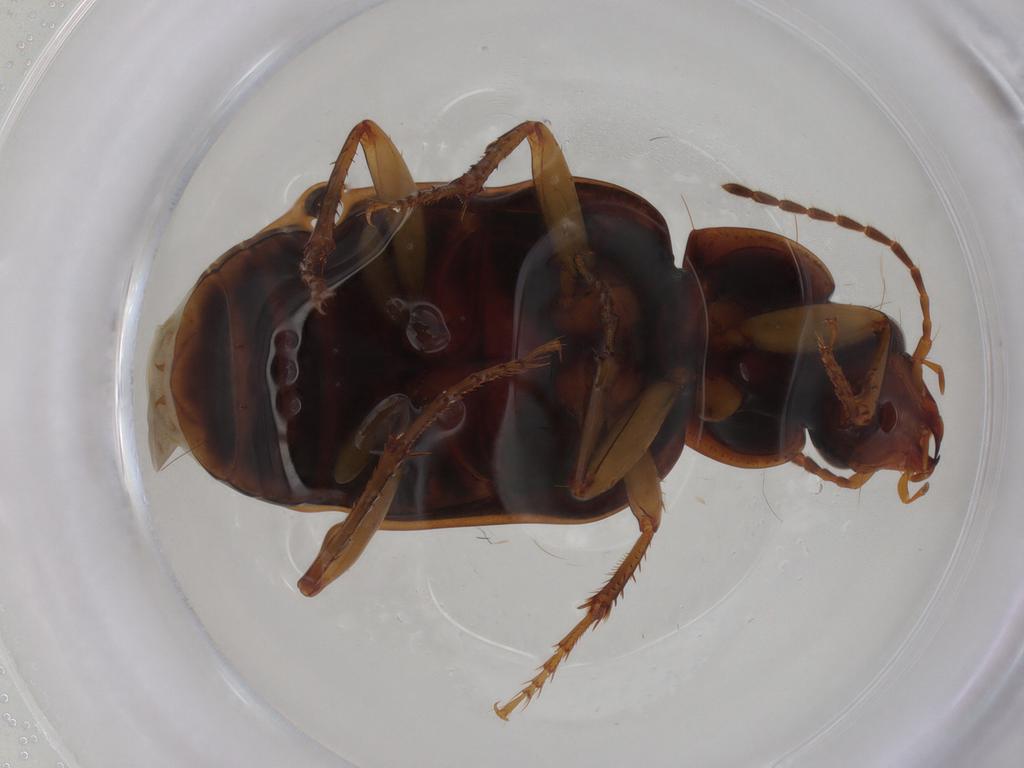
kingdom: Animalia
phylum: Arthropoda
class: Insecta
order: Coleoptera
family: Carabidae
